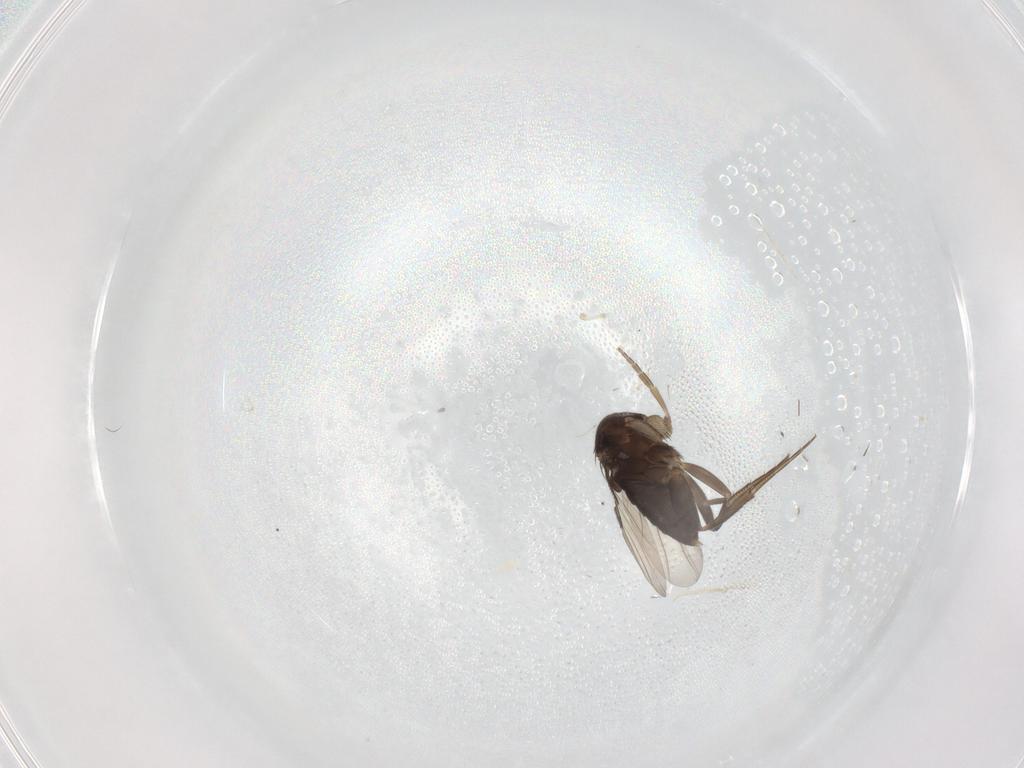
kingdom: Animalia
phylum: Arthropoda
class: Insecta
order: Diptera
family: Phoridae
